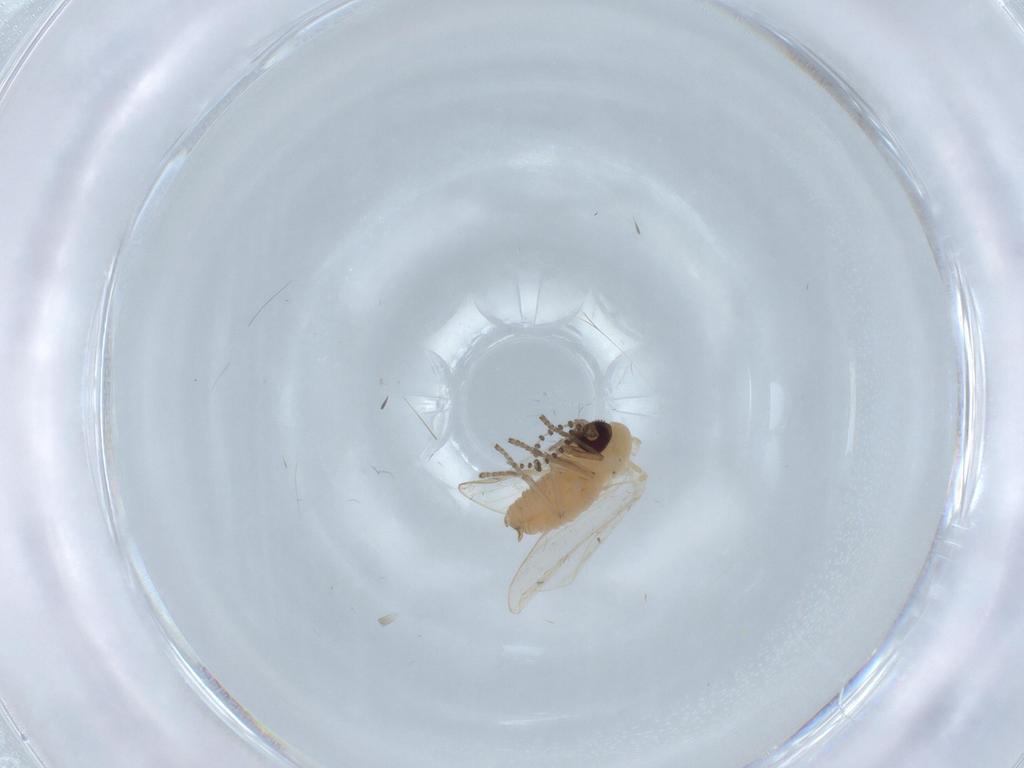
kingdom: Animalia
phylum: Arthropoda
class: Insecta
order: Diptera
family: Psychodidae
